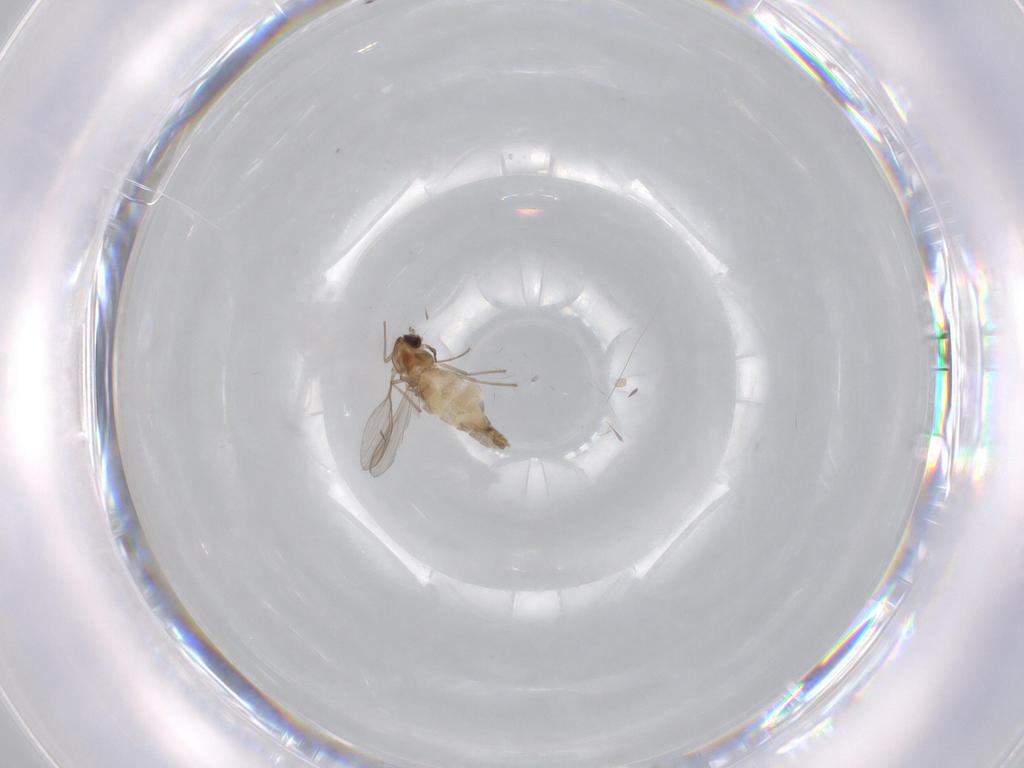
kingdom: Animalia
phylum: Arthropoda
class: Insecta
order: Diptera
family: Chironomidae
